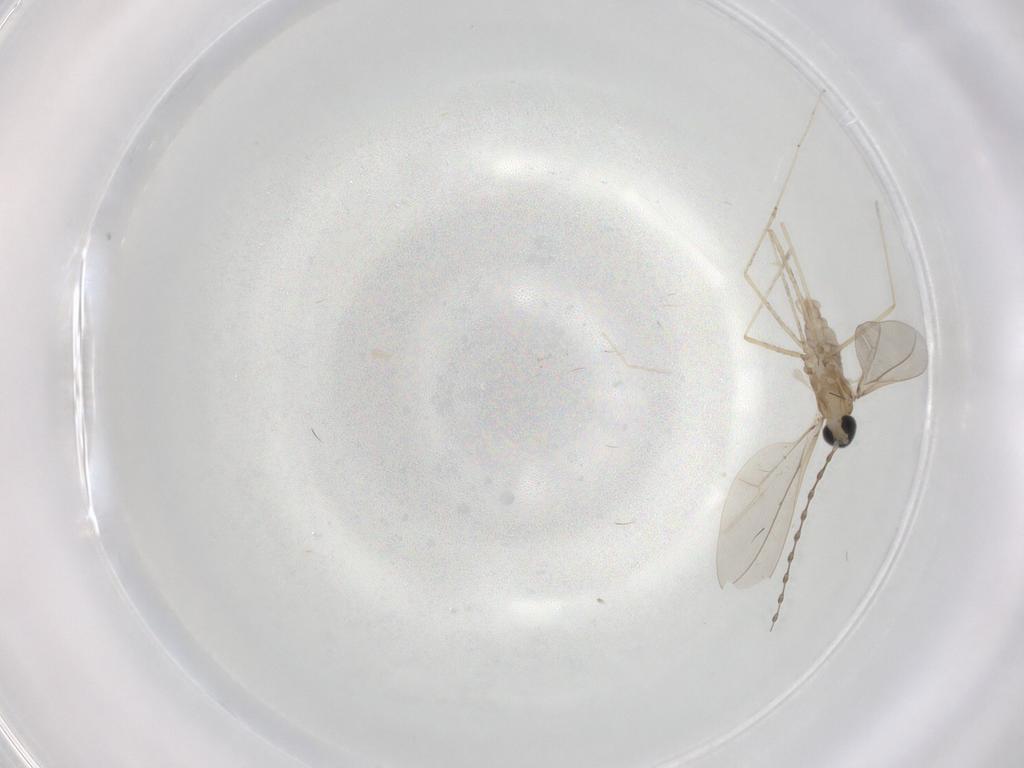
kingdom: Animalia
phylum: Arthropoda
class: Insecta
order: Diptera
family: Cecidomyiidae
